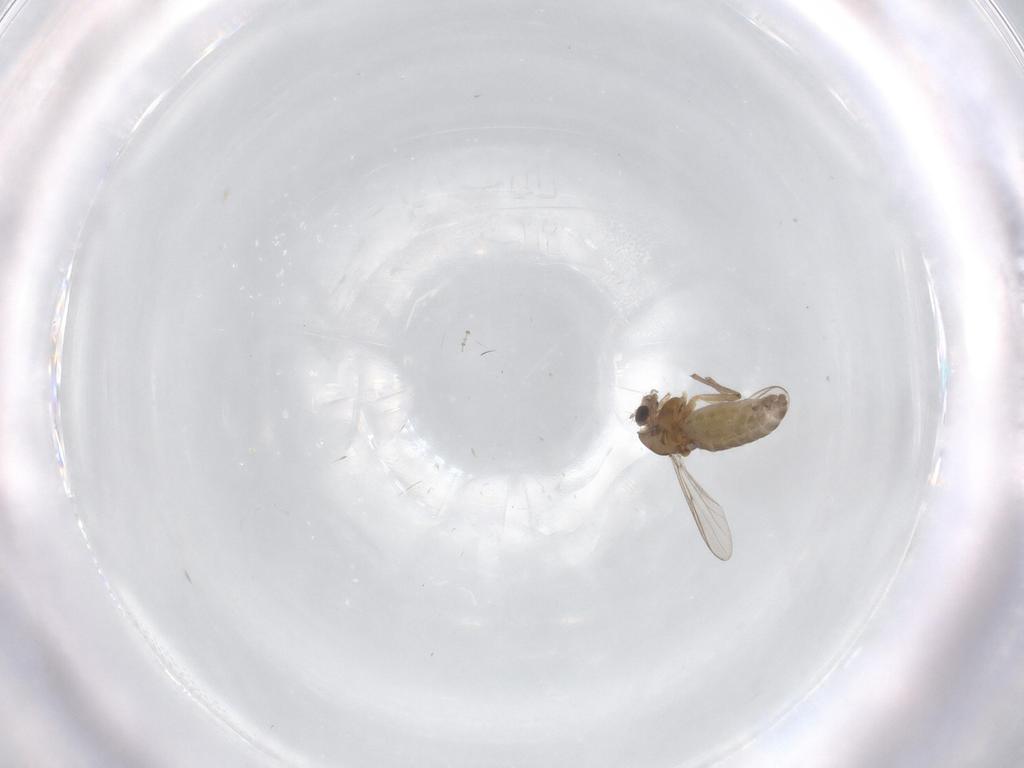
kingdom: Animalia
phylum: Arthropoda
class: Insecta
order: Diptera
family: Chironomidae
